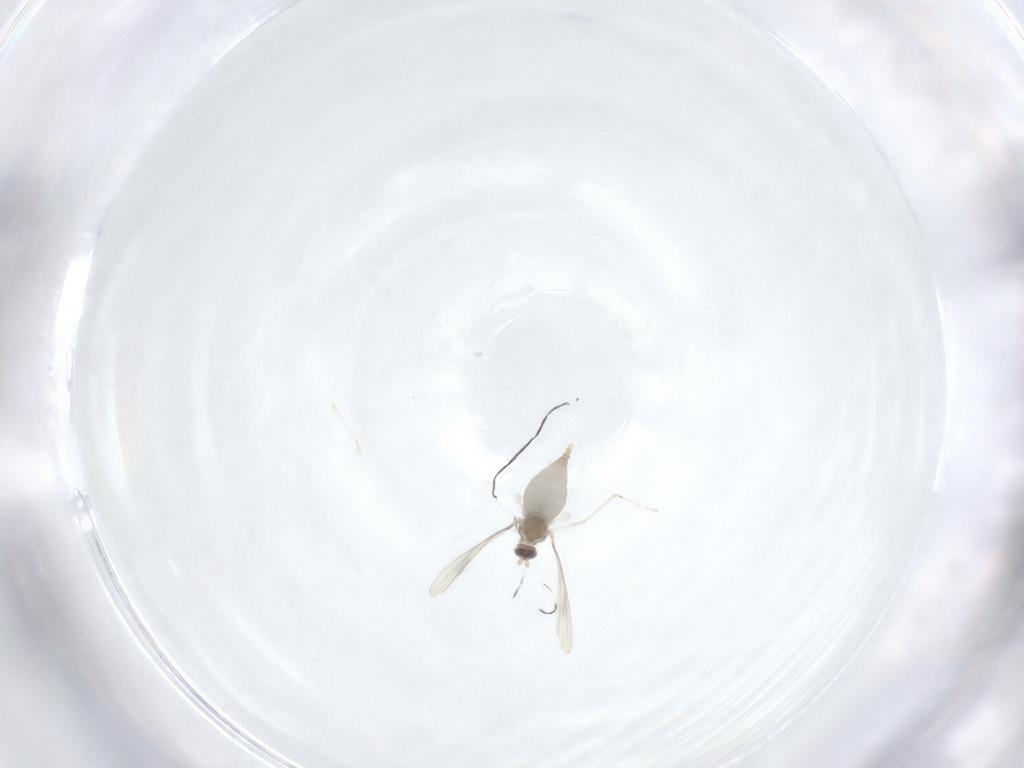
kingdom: Animalia
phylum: Arthropoda
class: Insecta
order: Diptera
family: Cecidomyiidae
